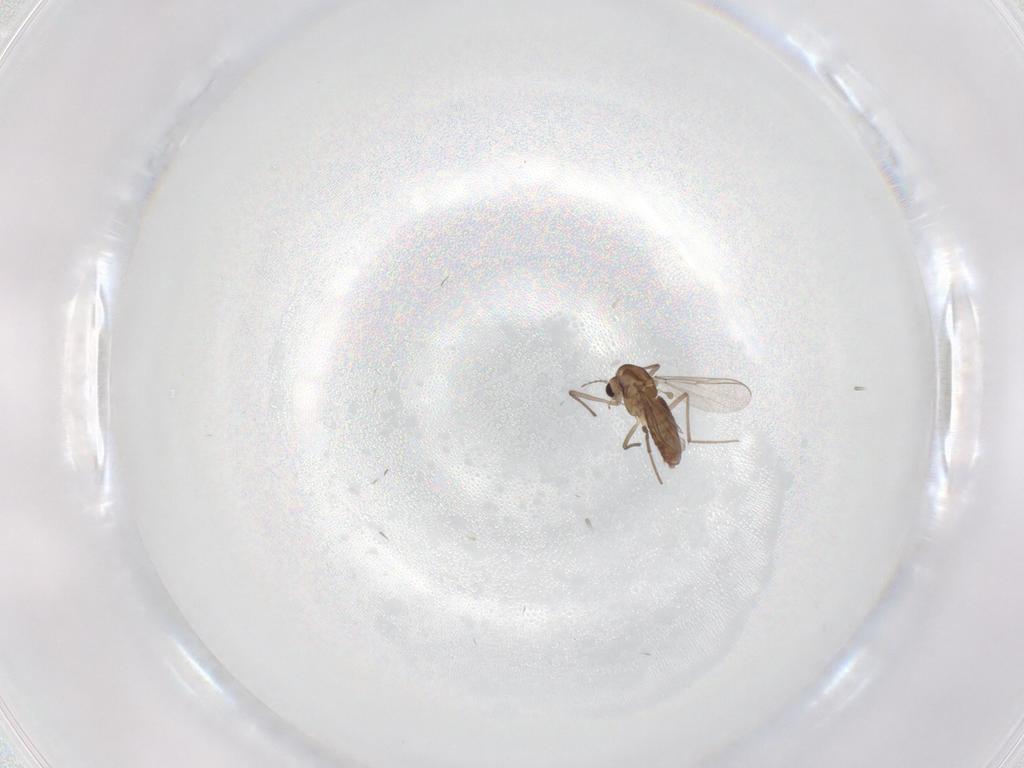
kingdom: Animalia
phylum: Arthropoda
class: Insecta
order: Diptera
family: Chironomidae
